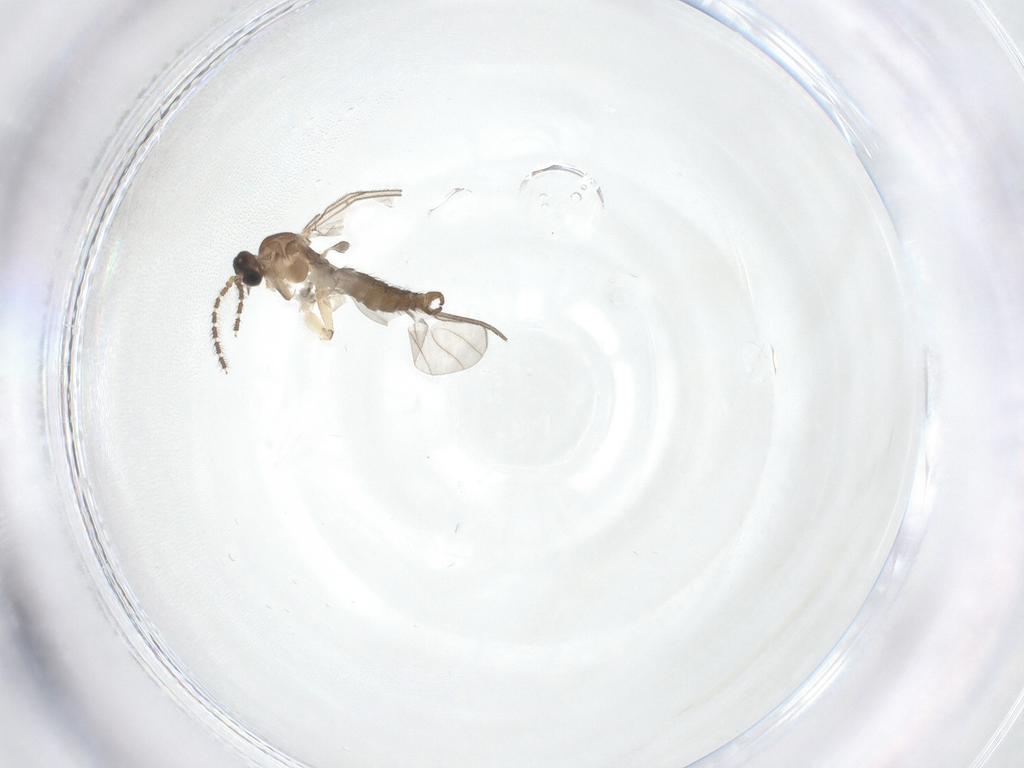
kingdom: Animalia
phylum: Arthropoda
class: Insecta
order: Diptera
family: Sciaridae
